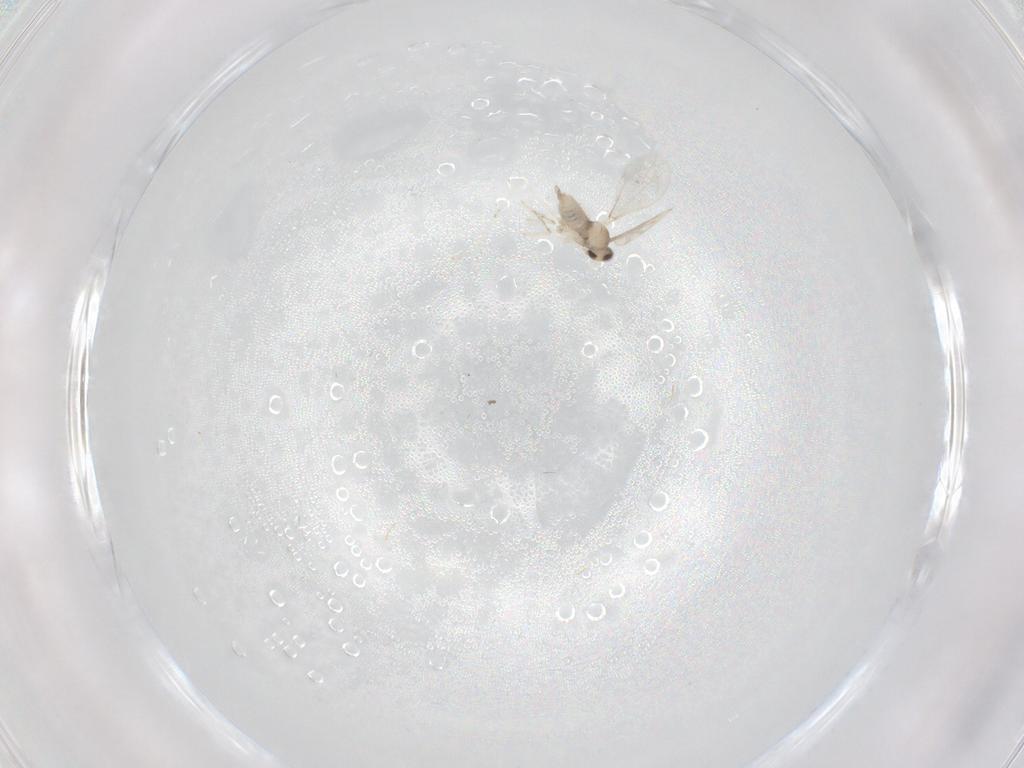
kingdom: Animalia
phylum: Arthropoda
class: Insecta
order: Diptera
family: Cecidomyiidae
